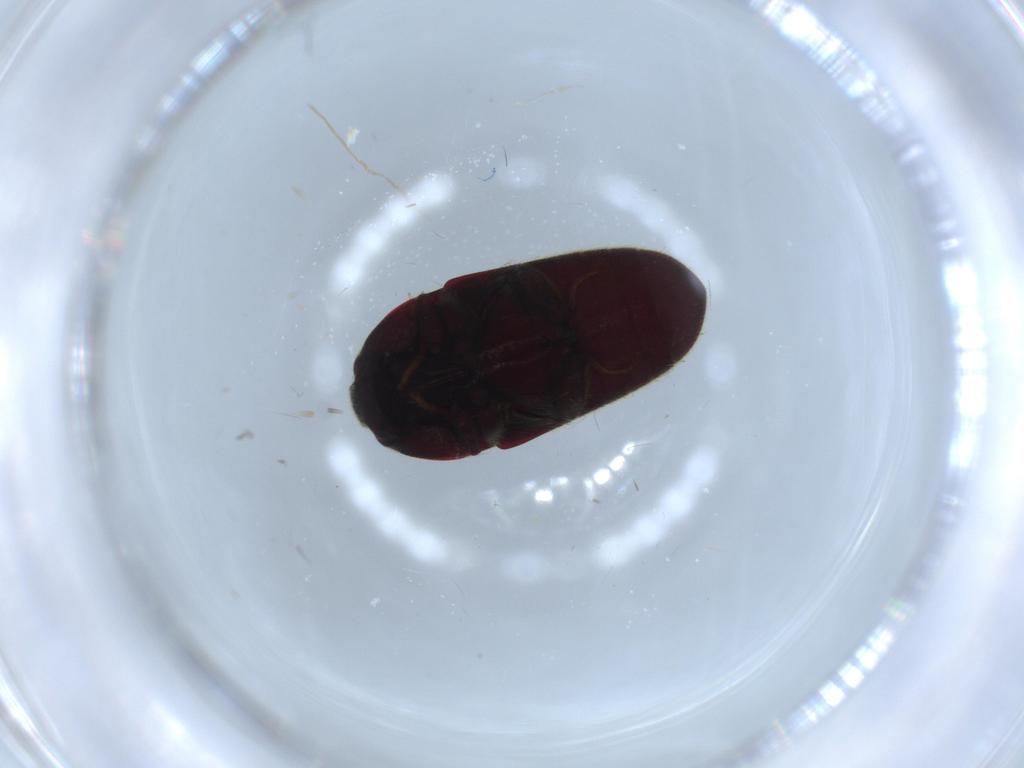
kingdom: Animalia
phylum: Arthropoda
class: Insecta
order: Coleoptera
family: Throscidae
